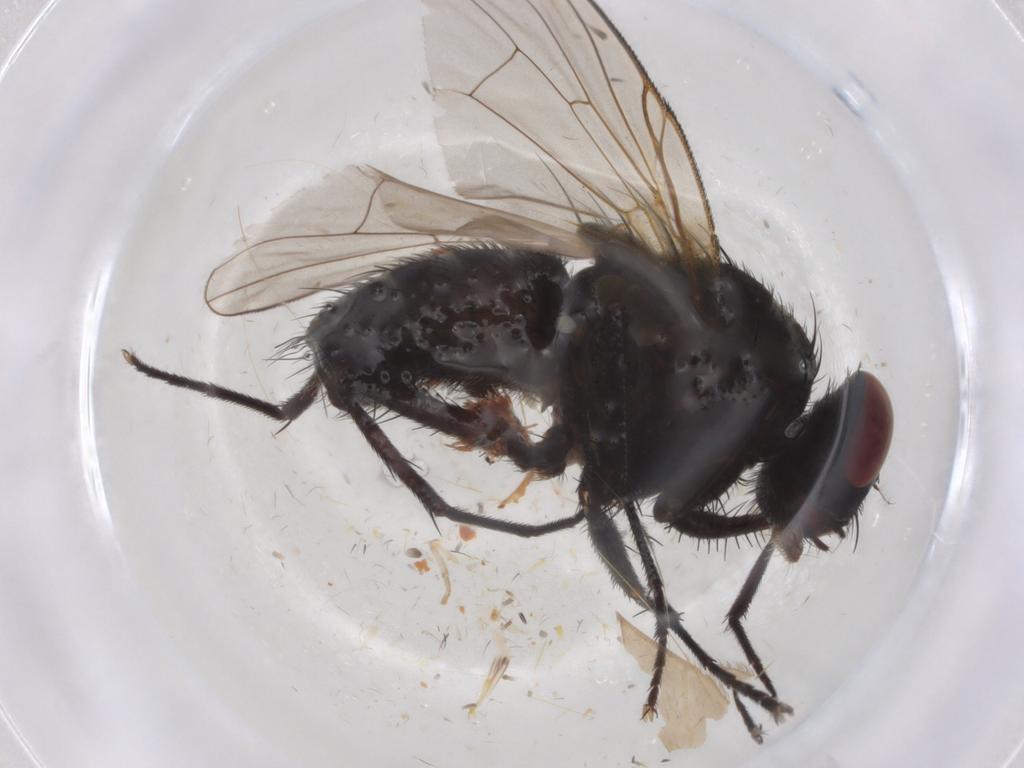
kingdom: Animalia
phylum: Arthropoda
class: Insecta
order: Diptera
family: Muscidae
